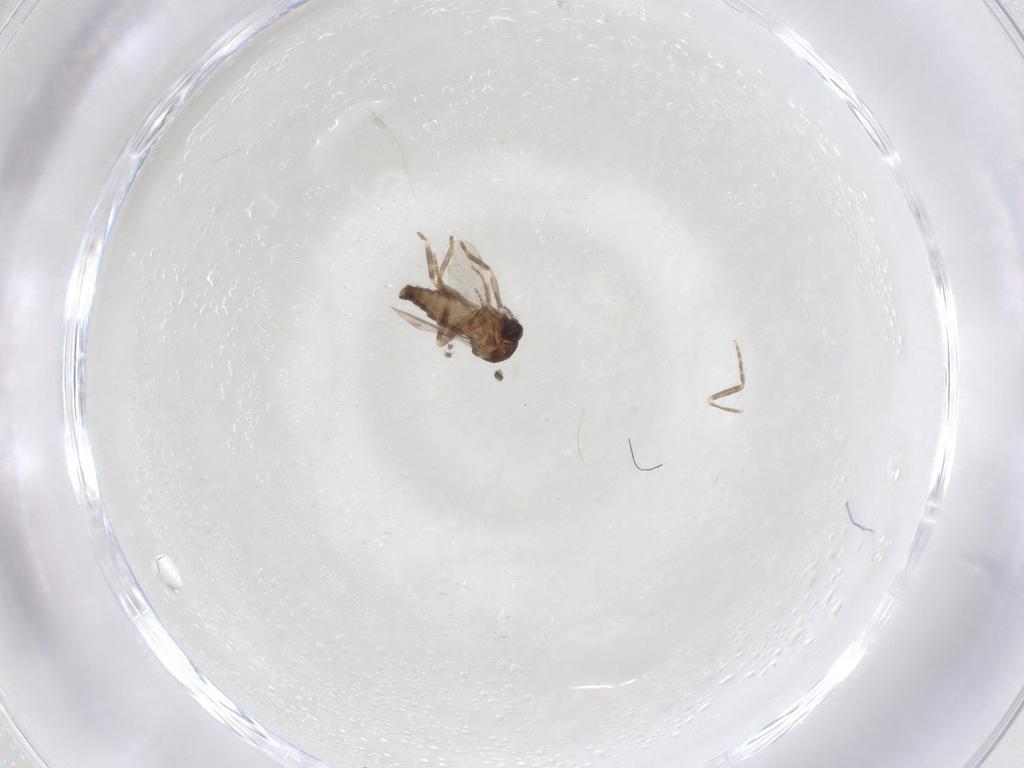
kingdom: Animalia
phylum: Arthropoda
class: Insecta
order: Diptera
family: Ceratopogonidae
